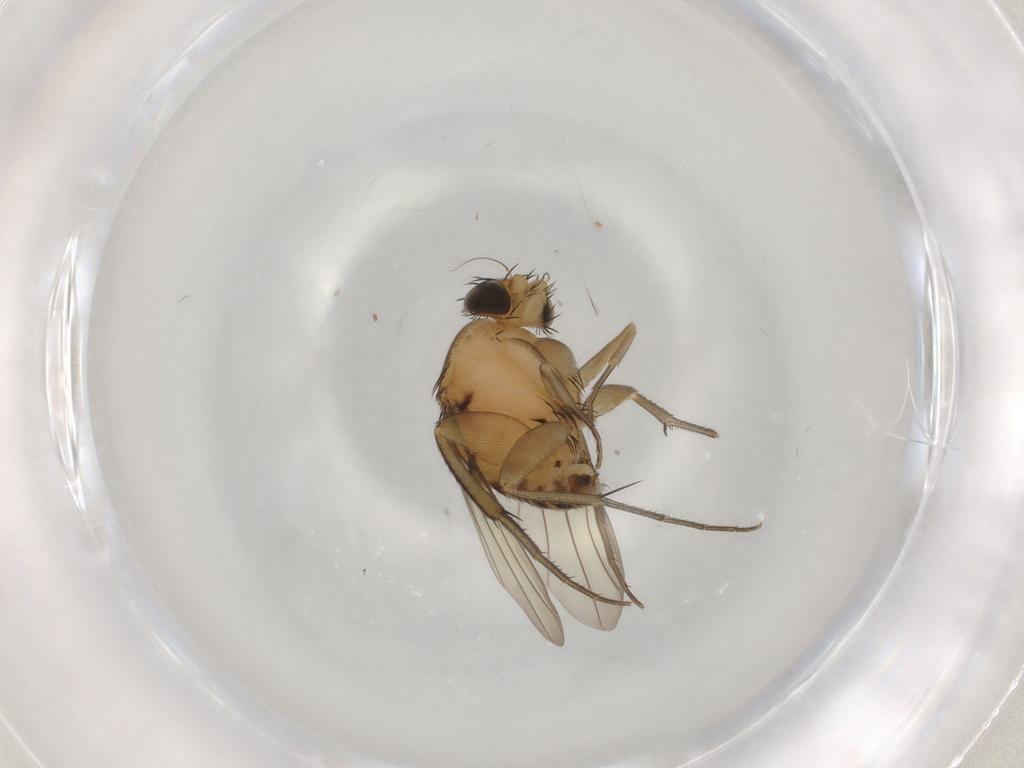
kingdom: Animalia
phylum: Arthropoda
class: Insecta
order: Diptera
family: Phoridae
